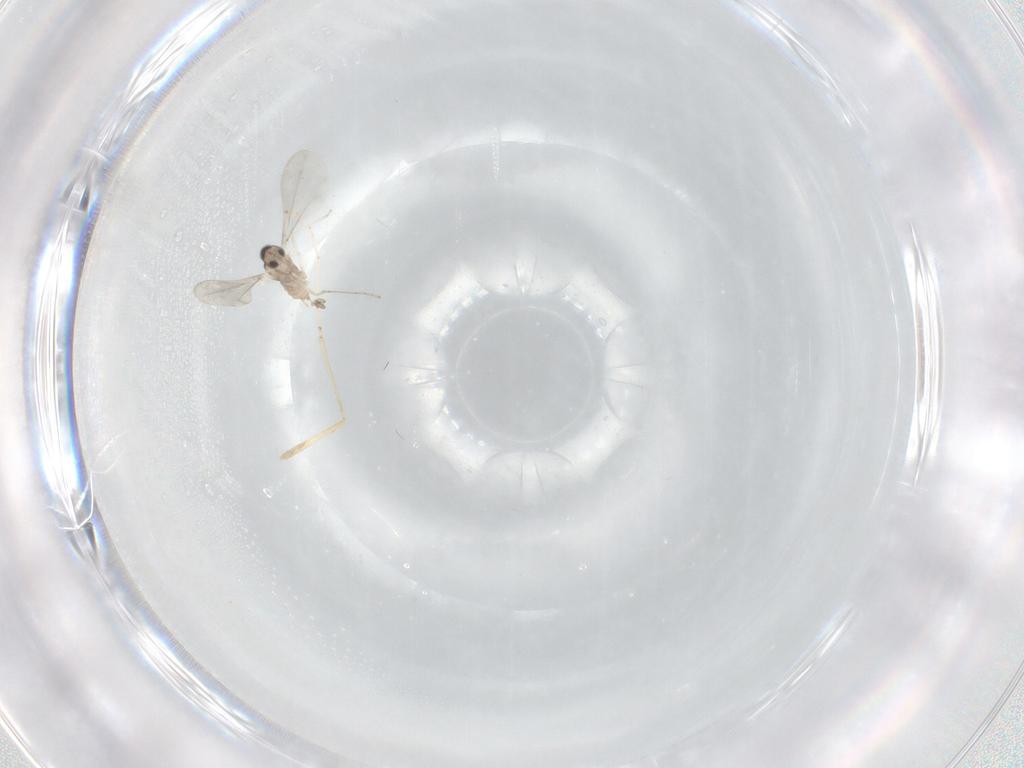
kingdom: Animalia
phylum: Arthropoda
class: Insecta
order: Diptera
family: Cecidomyiidae
